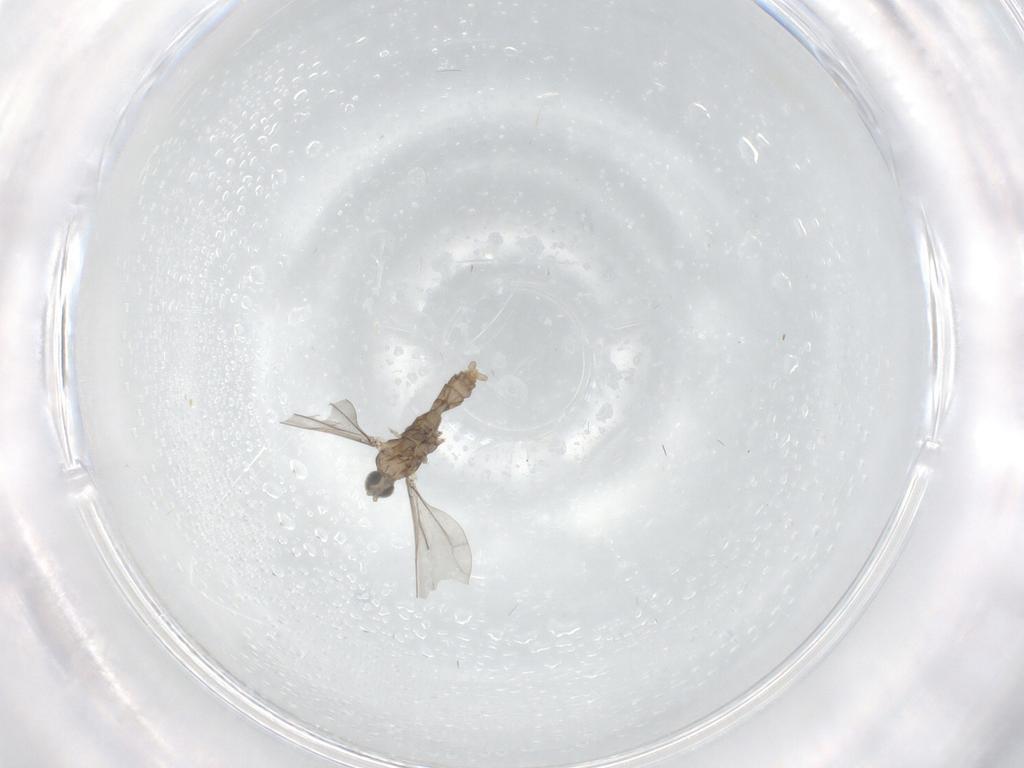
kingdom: Animalia
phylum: Arthropoda
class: Insecta
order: Diptera
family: Cecidomyiidae
